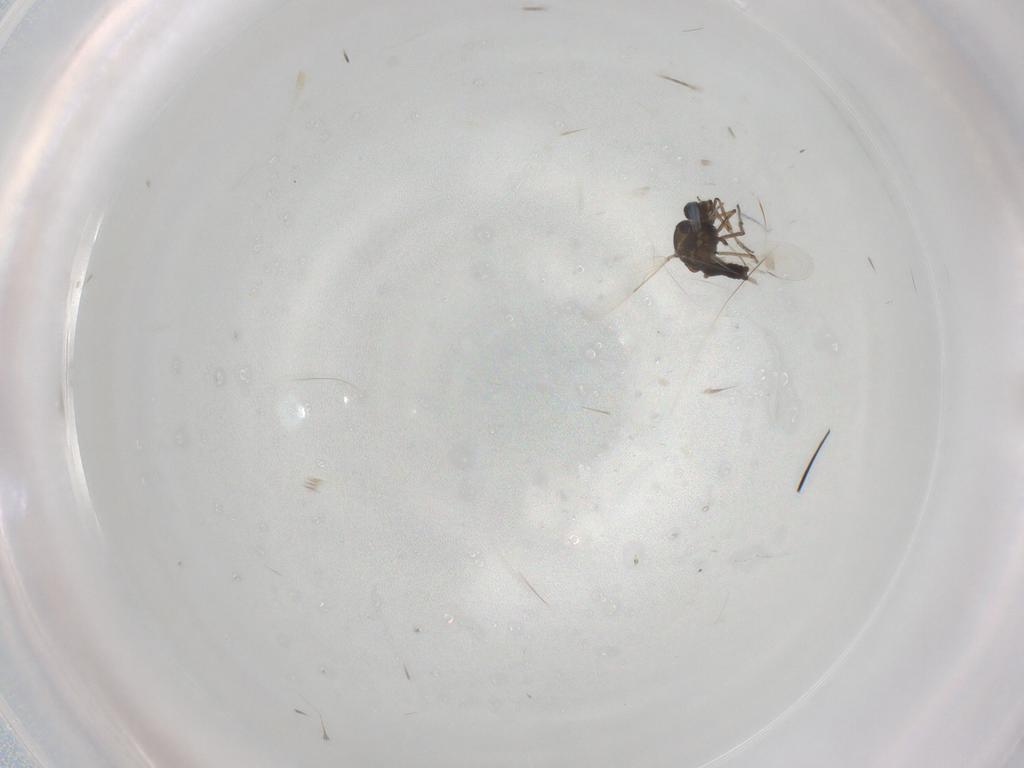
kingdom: Animalia
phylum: Arthropoda
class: Insecta
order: Diptera
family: Ceratopogonidae
